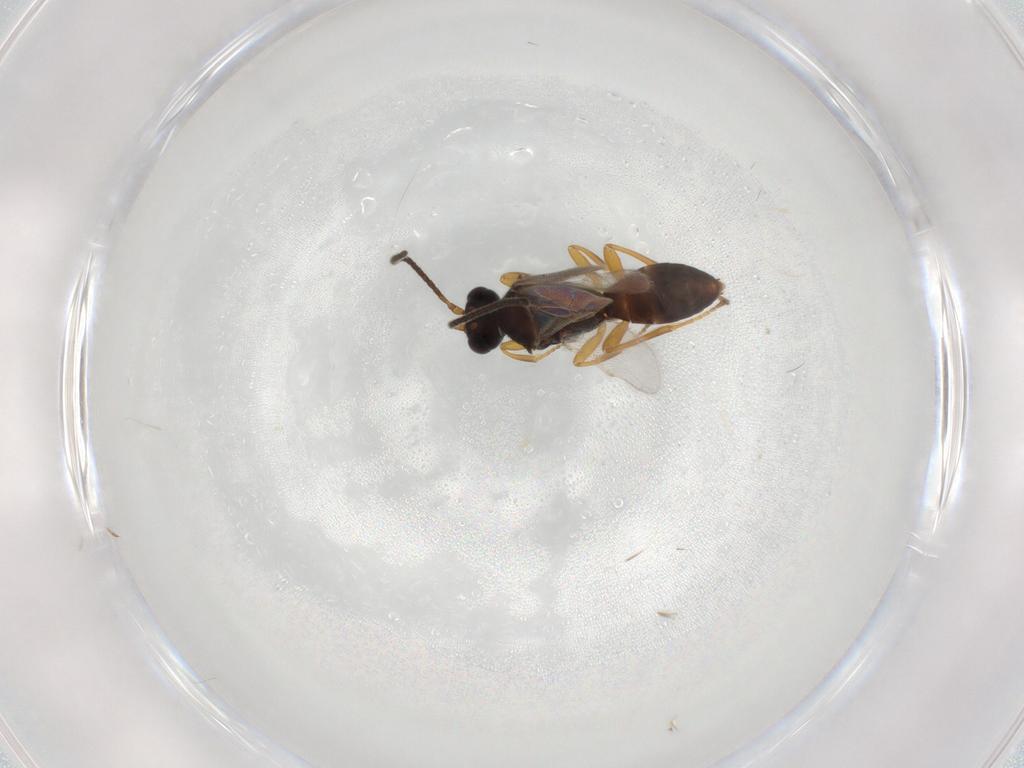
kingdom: Animalia
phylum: Arthropoda
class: Insecta
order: Hymenoptera
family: Braconidae
